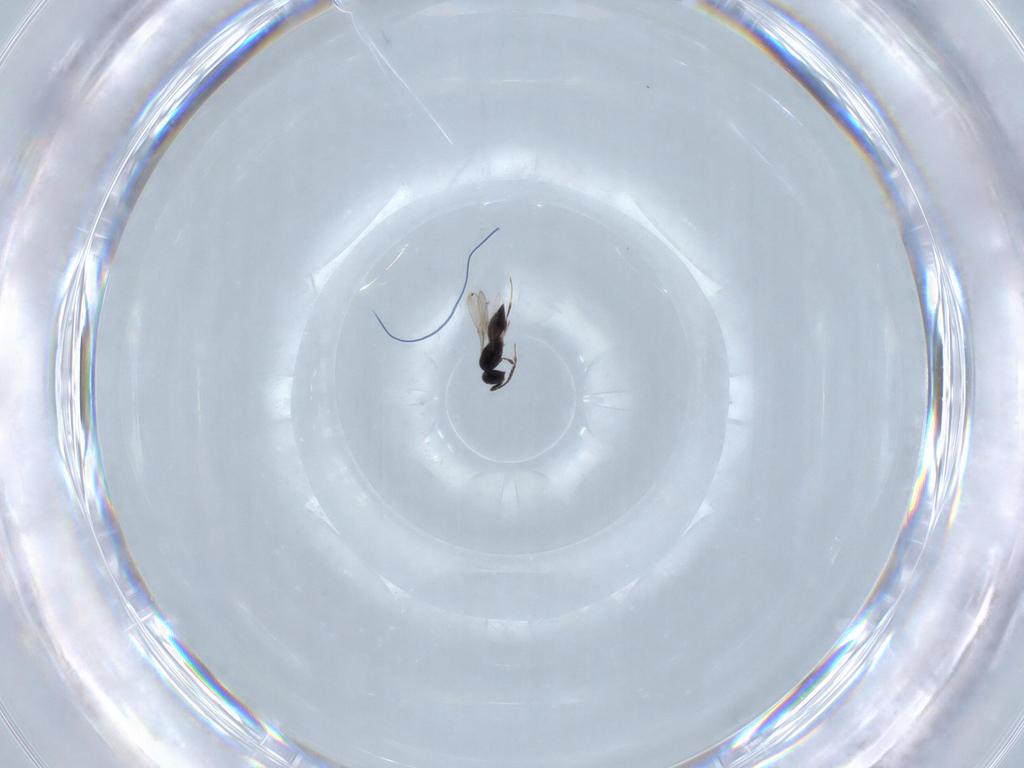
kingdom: Animalia
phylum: Arthropoda
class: Insecta
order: Hymenoptera
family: Scelionidae
